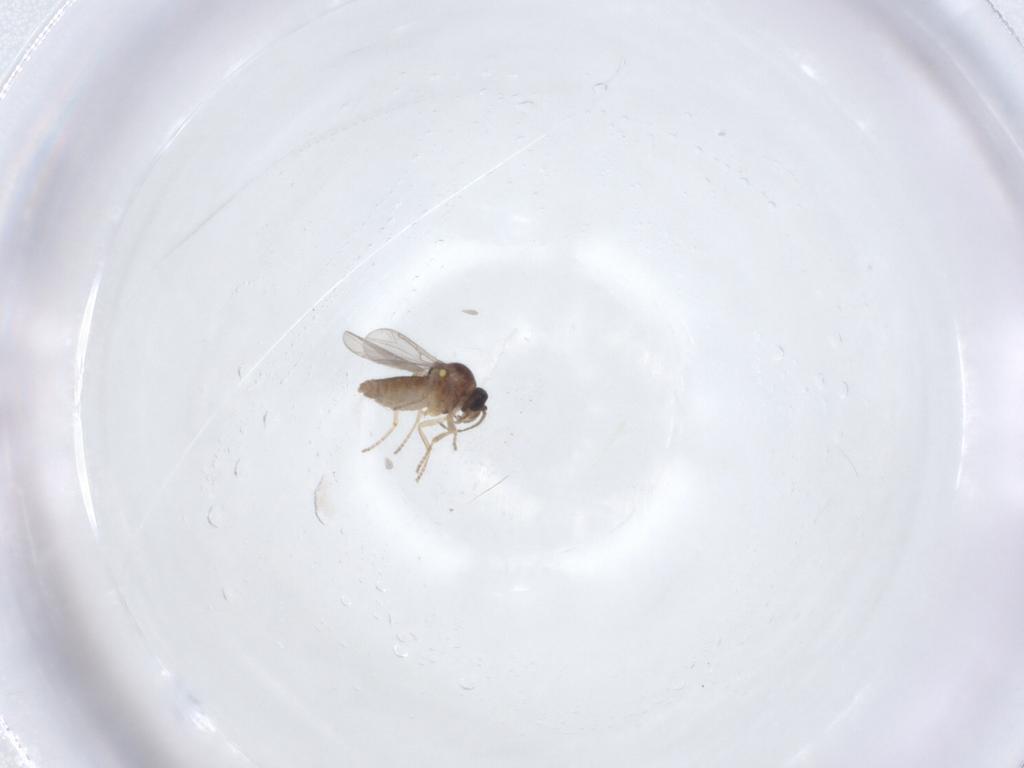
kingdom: Animalia
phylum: Arthropoda
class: Insecta
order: Diptera
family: Ceratopogonidae
